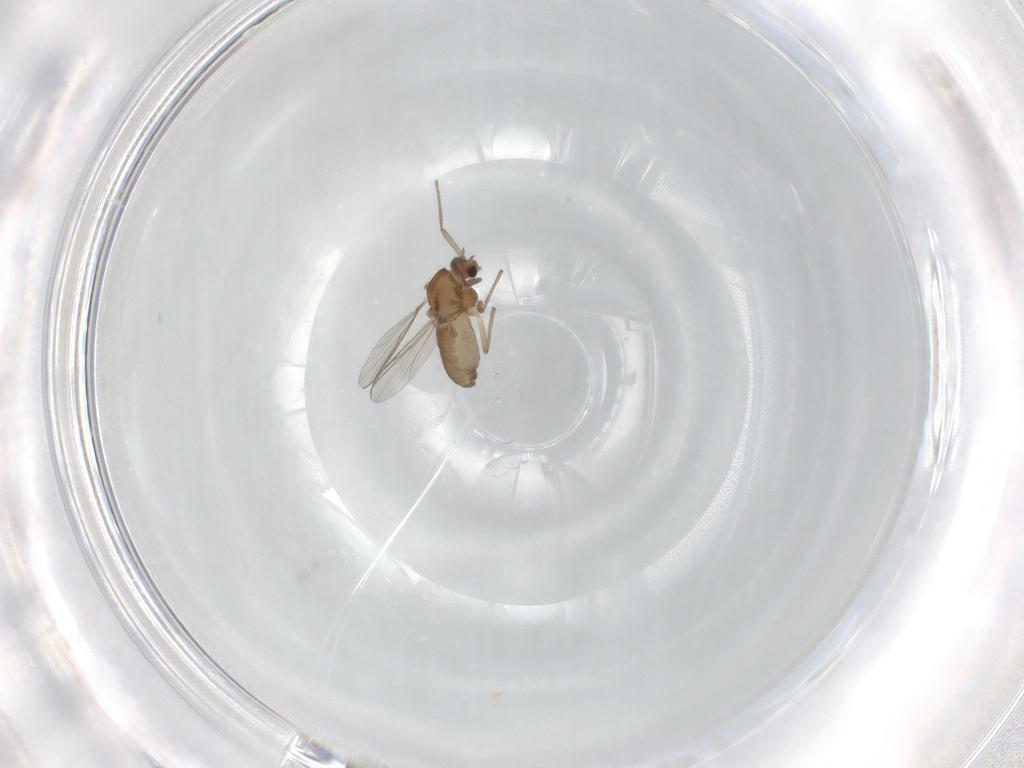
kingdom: Animalia
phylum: Arthropoda
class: Insecta
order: Diptera
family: Chironomidae
